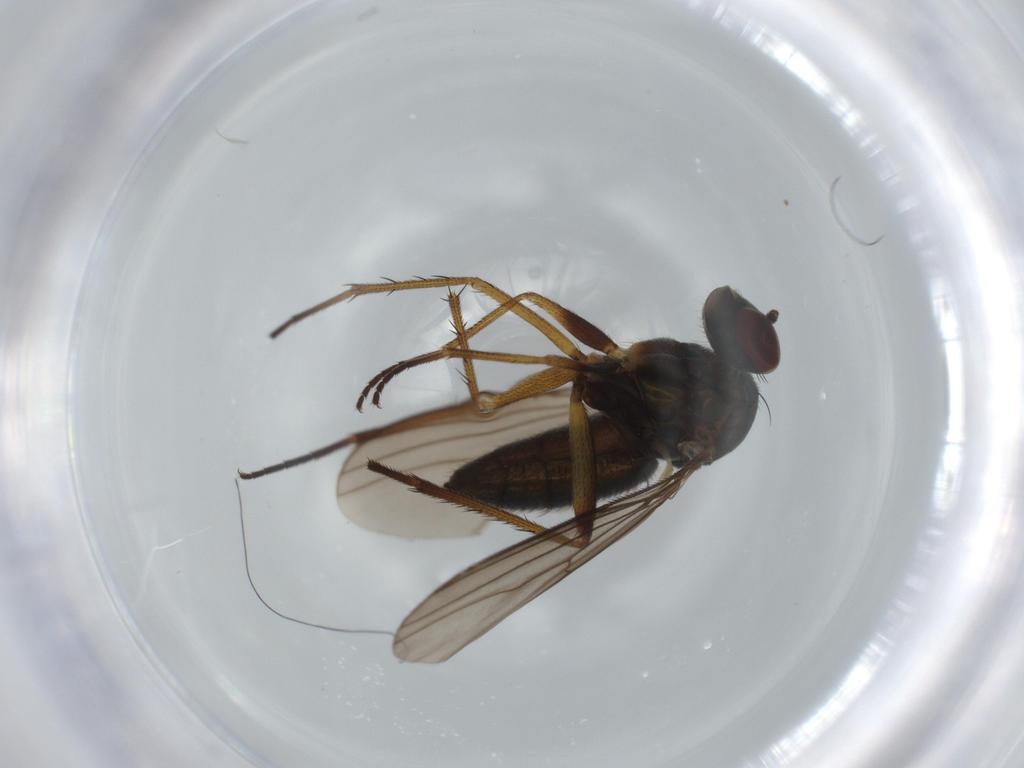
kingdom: Animalia
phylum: Arthropoda
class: Insecta
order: Diptera
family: Dolichopodidae
